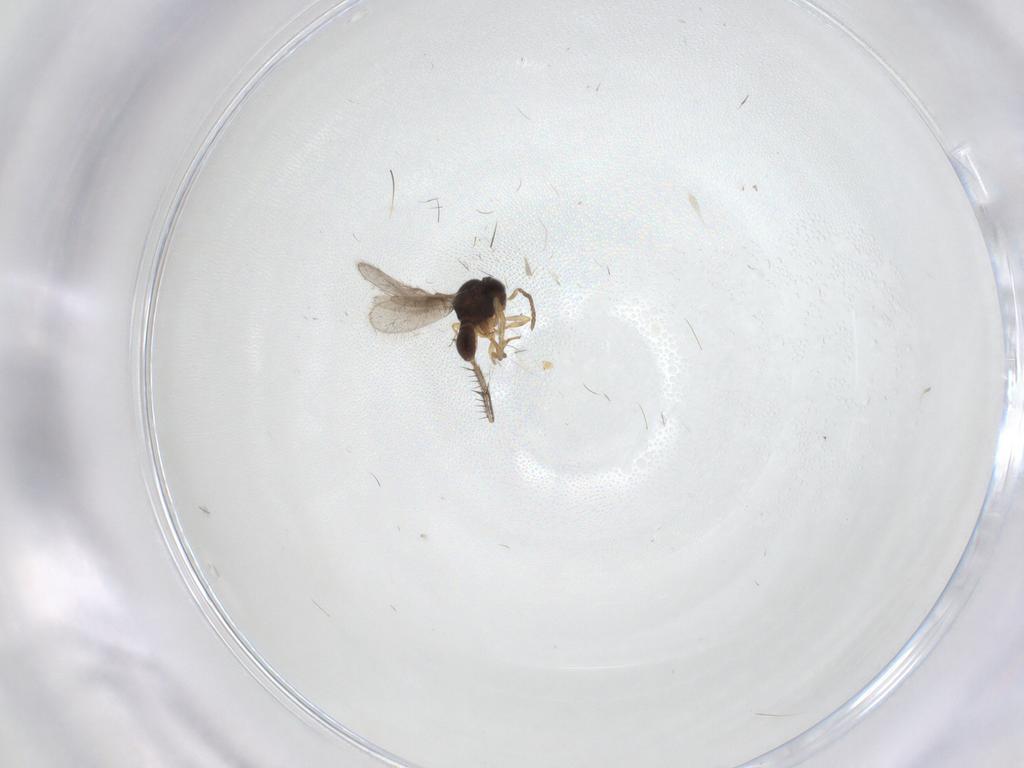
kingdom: Animalia
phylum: Arthropoda
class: Insecta
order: Hymenoptera
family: Scelionidae
